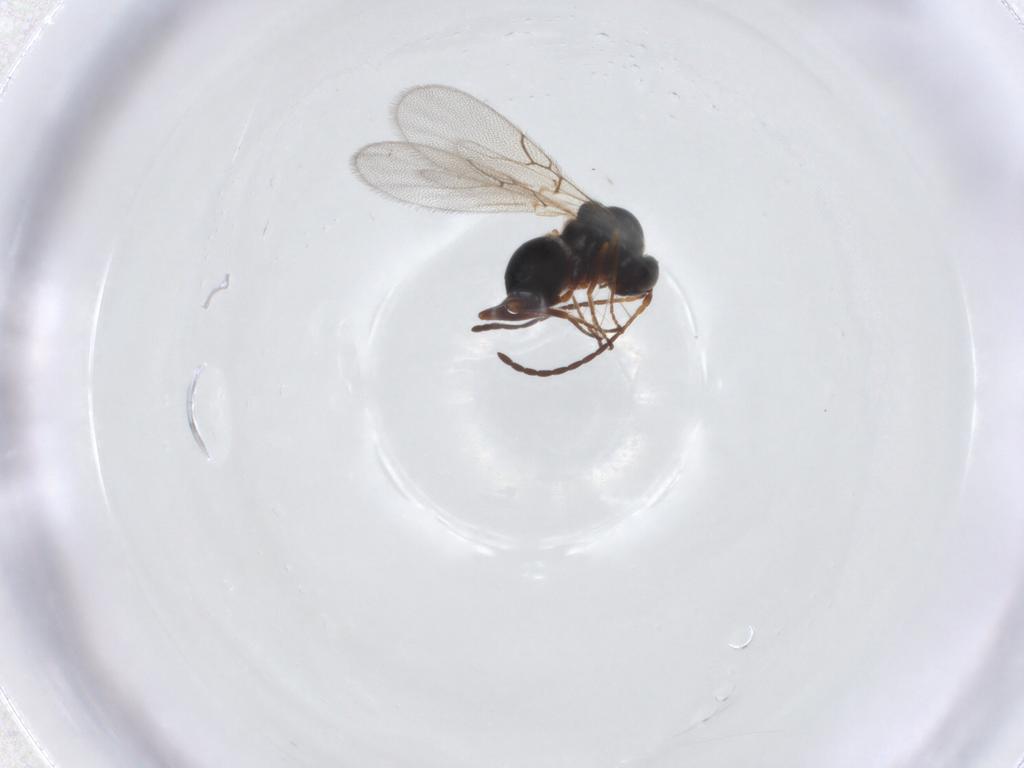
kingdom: Animalia
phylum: Arthropoda
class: Insecta
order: Hymenoptera
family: Figitidae
